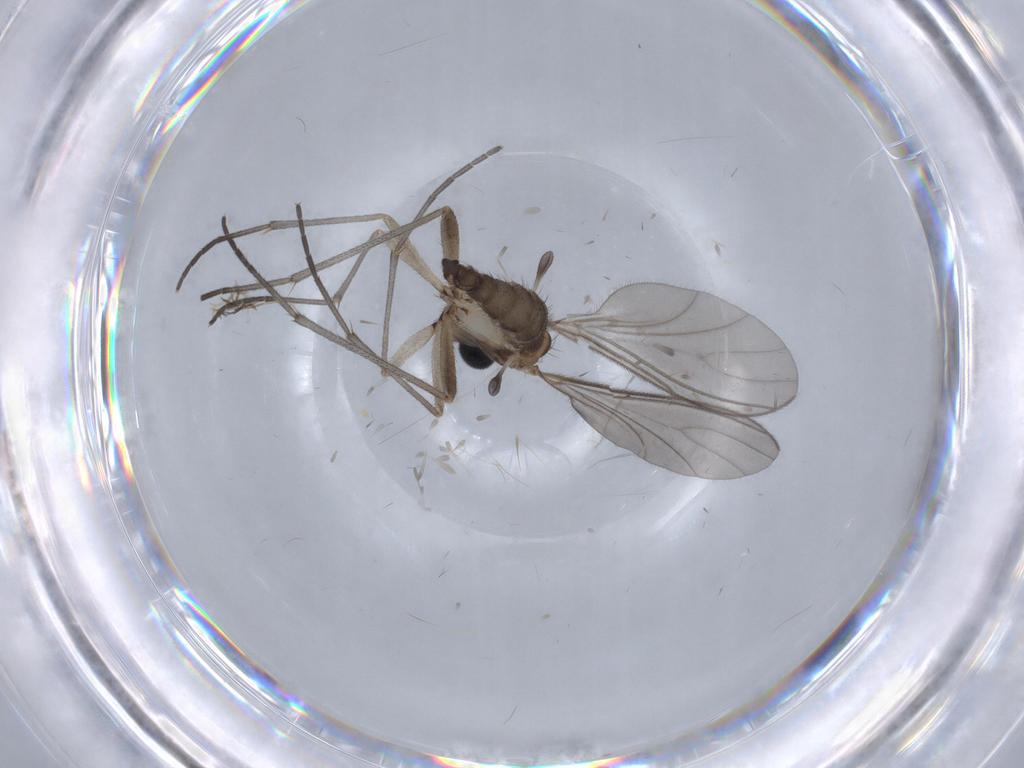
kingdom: Animalia
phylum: Arthropoda
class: Insecta
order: Diptera
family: Sciaridae
